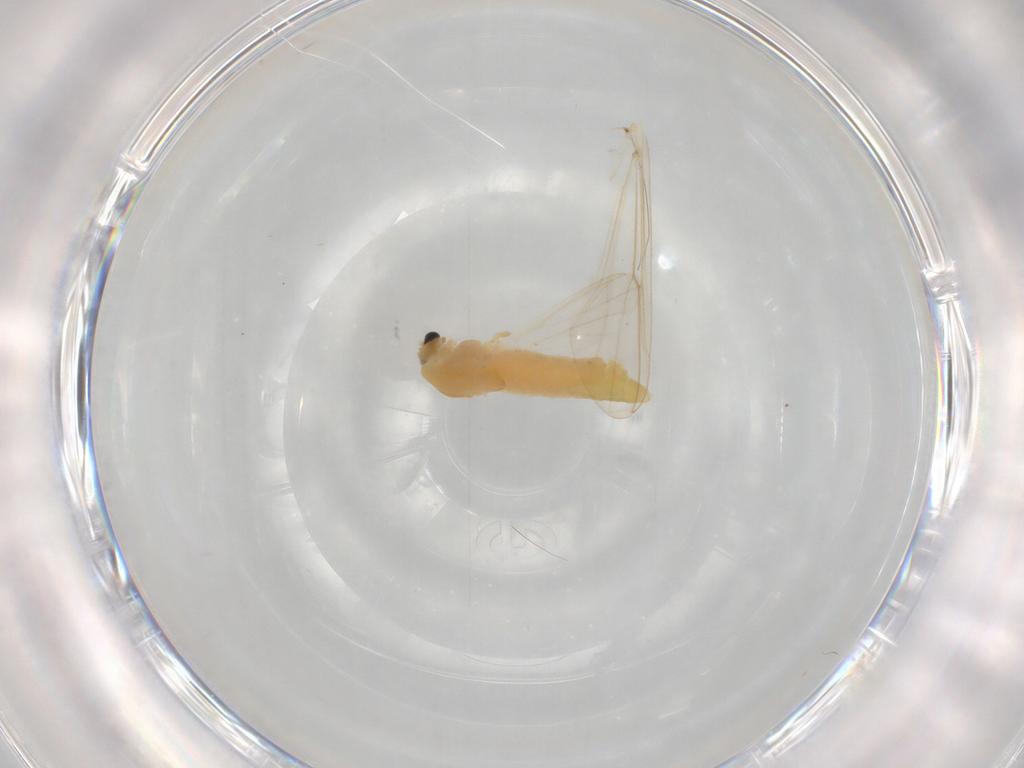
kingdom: Animalia
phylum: Arthropoda
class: Insecta
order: Diptera
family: Chironomidae
